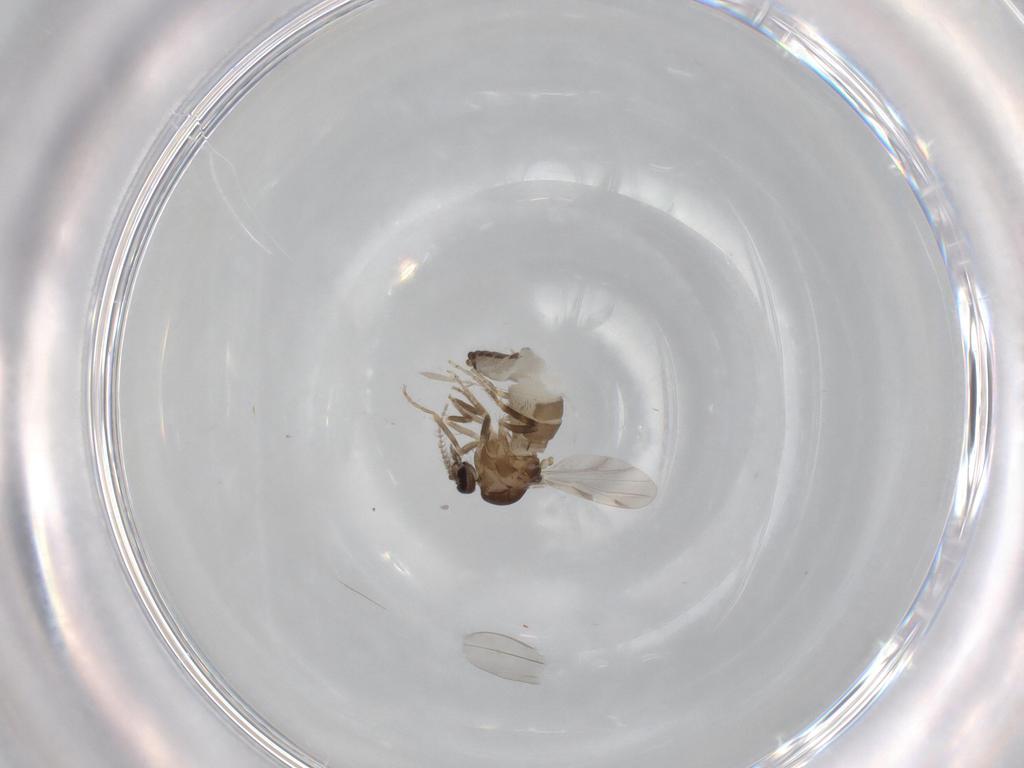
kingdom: Animalia
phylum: Arthropoda
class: Insecta
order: Diptera
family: Ceratopogonidae
